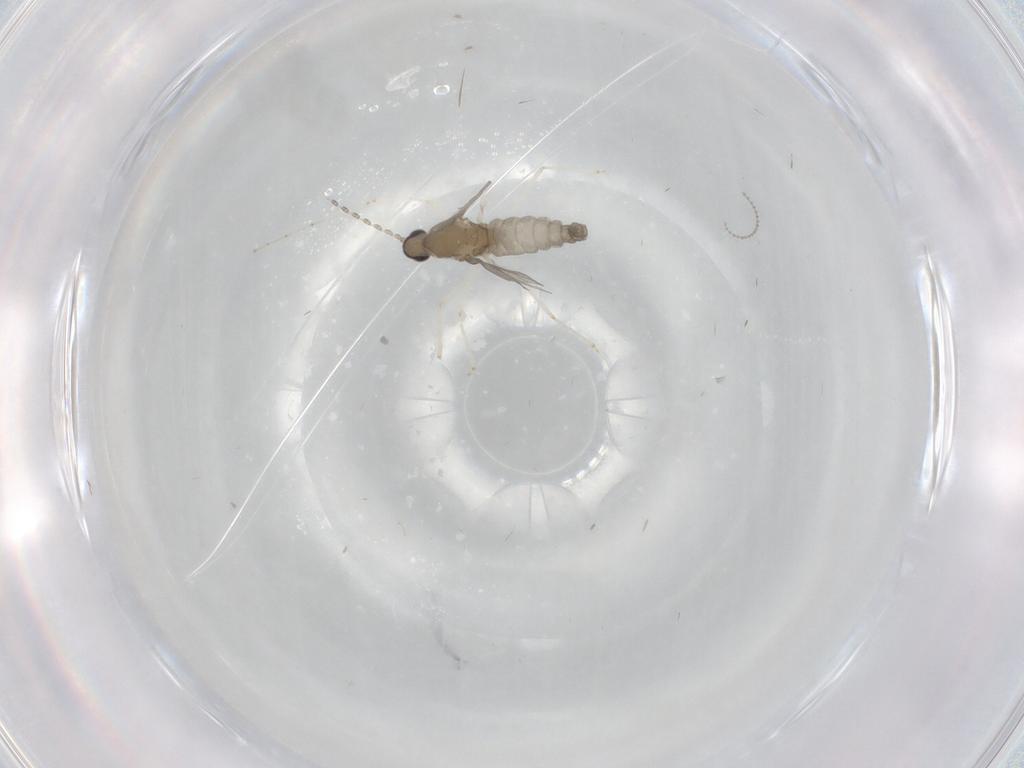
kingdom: Animalia
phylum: Arthropoda
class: Insecta
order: Diptera
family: Cecidomyiidae
